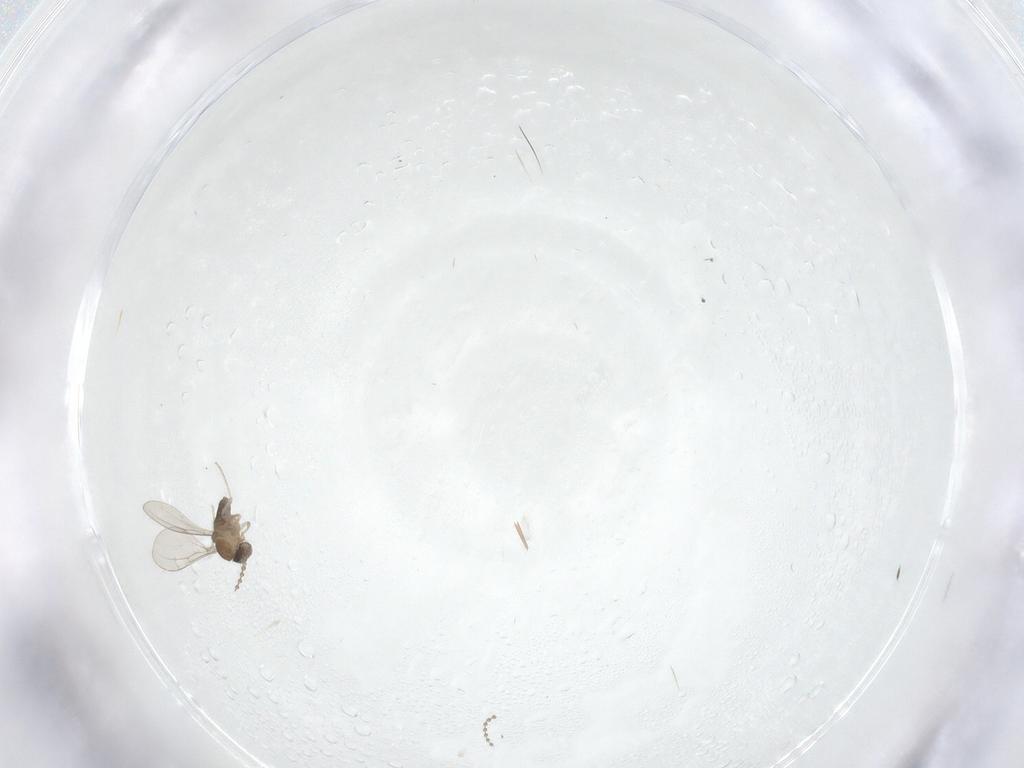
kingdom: Animalia
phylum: Arthropoda
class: Insecta
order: Diptera
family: Cecidomyiidae
